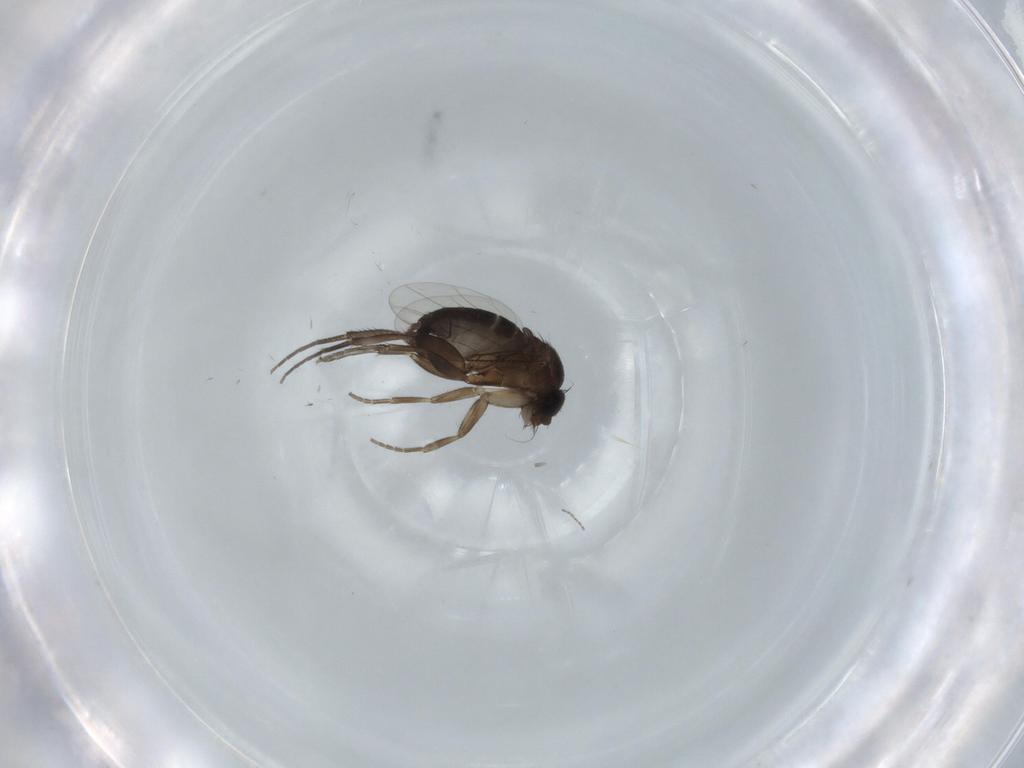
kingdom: Animalia
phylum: Arthropoda
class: Insecta
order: Diptera
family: Phoridae
